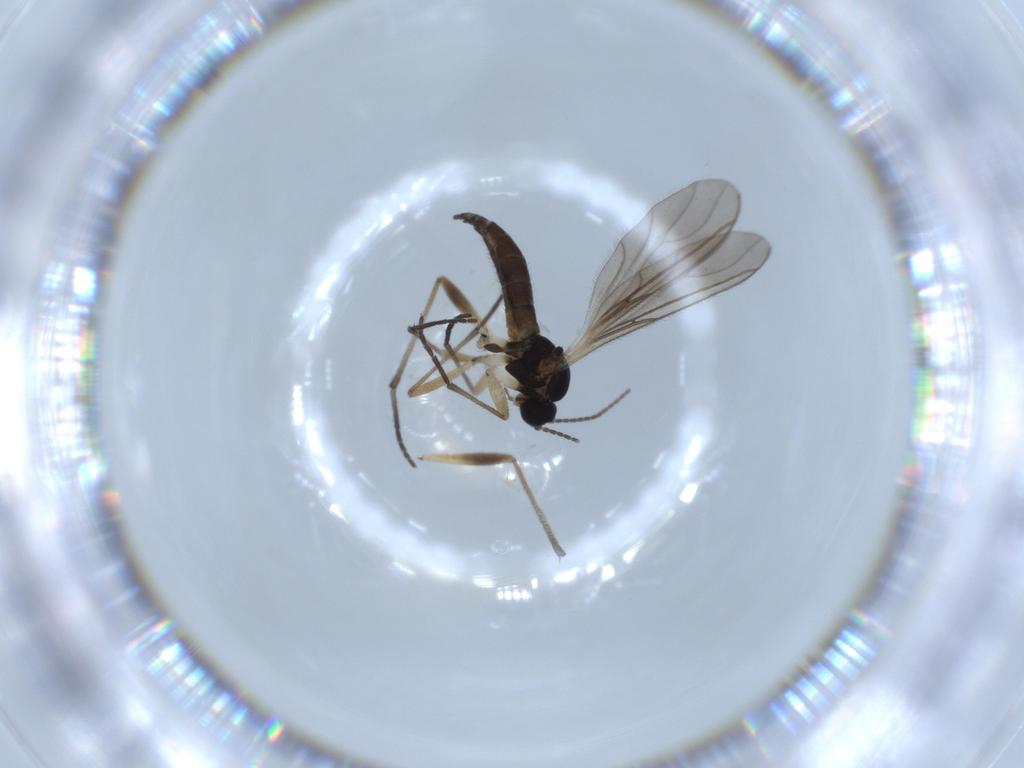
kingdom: Animalia
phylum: Arthropoda
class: Insecta
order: Diptera
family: Sciaridae
